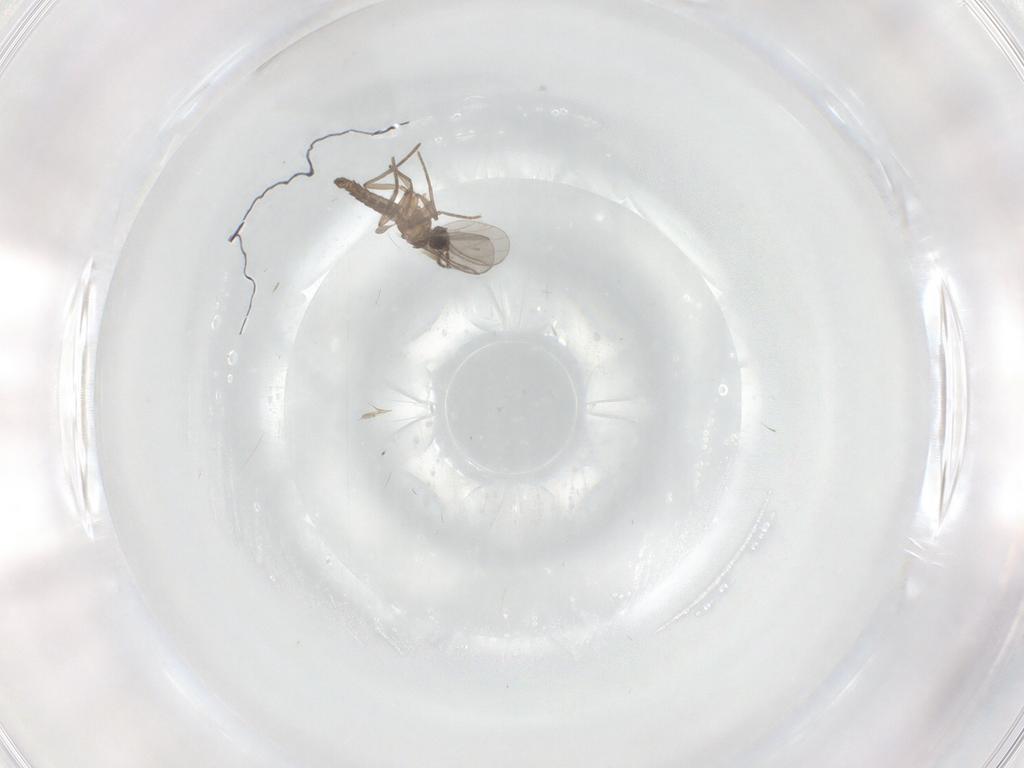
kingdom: Animalia
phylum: Arthropoda
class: Insecta
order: Diptera
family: Sciaridae
